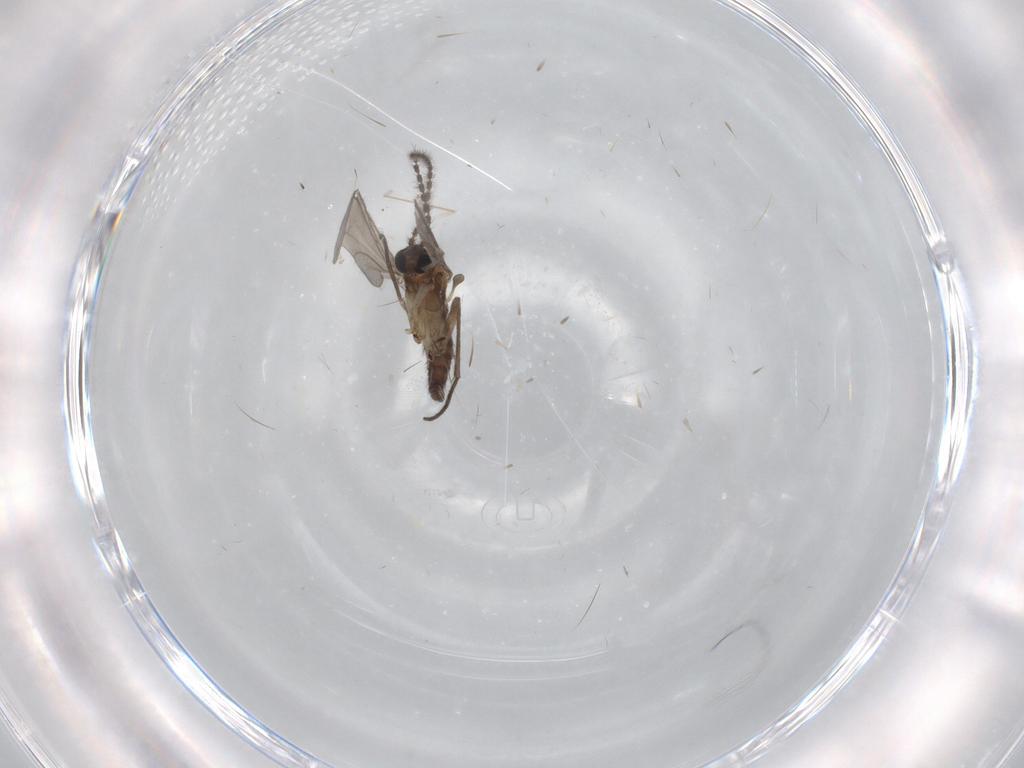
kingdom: Animalia
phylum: Arthropoda
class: Insecta
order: Diptera
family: Sciaridae
